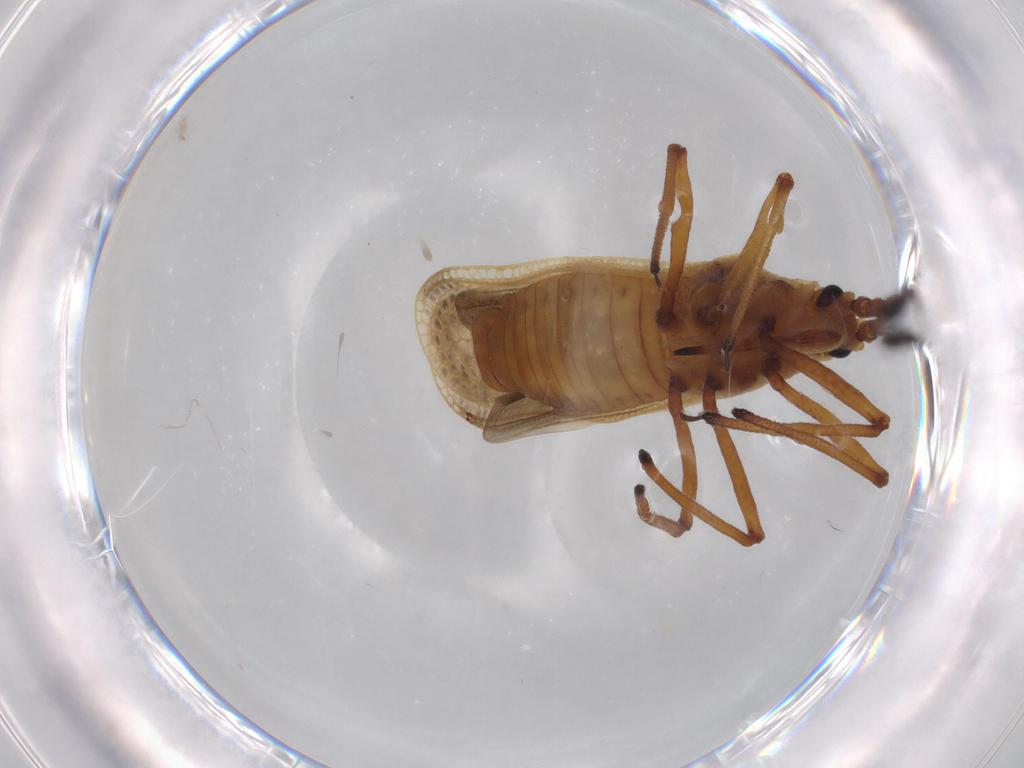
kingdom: Animalia
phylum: Arthropoda
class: Insecta
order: Hemiptera
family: Tingidae
